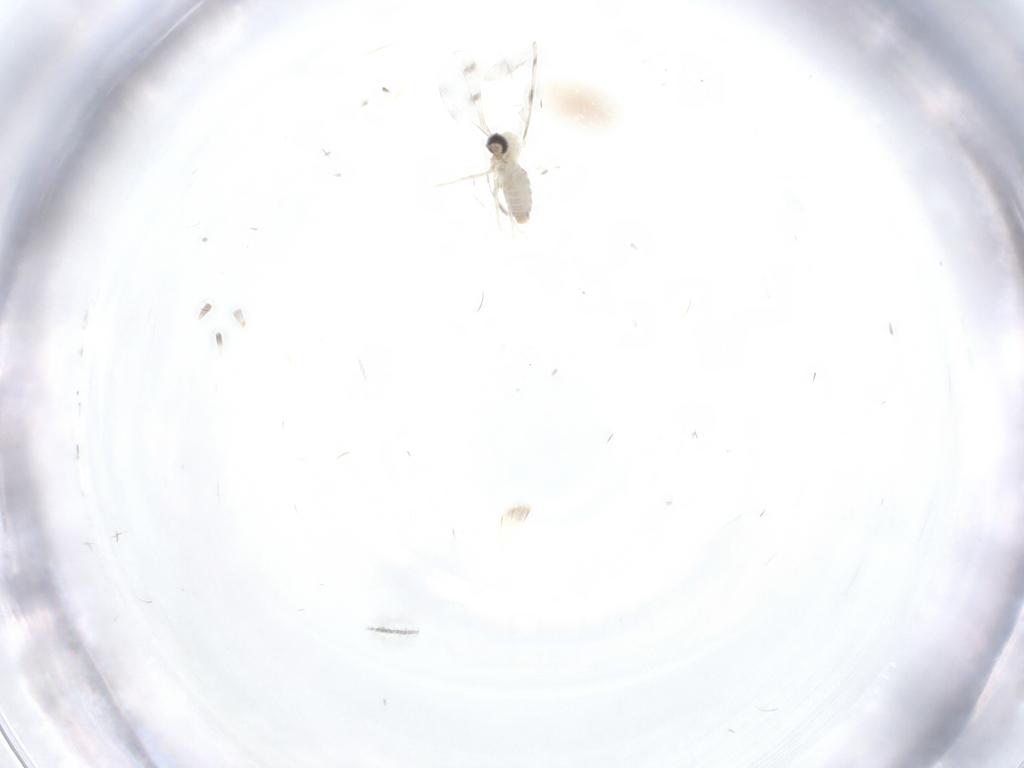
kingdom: Animalia
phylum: Arthropoda
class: Insecta
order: Diptera
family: Cecidomyiidae
